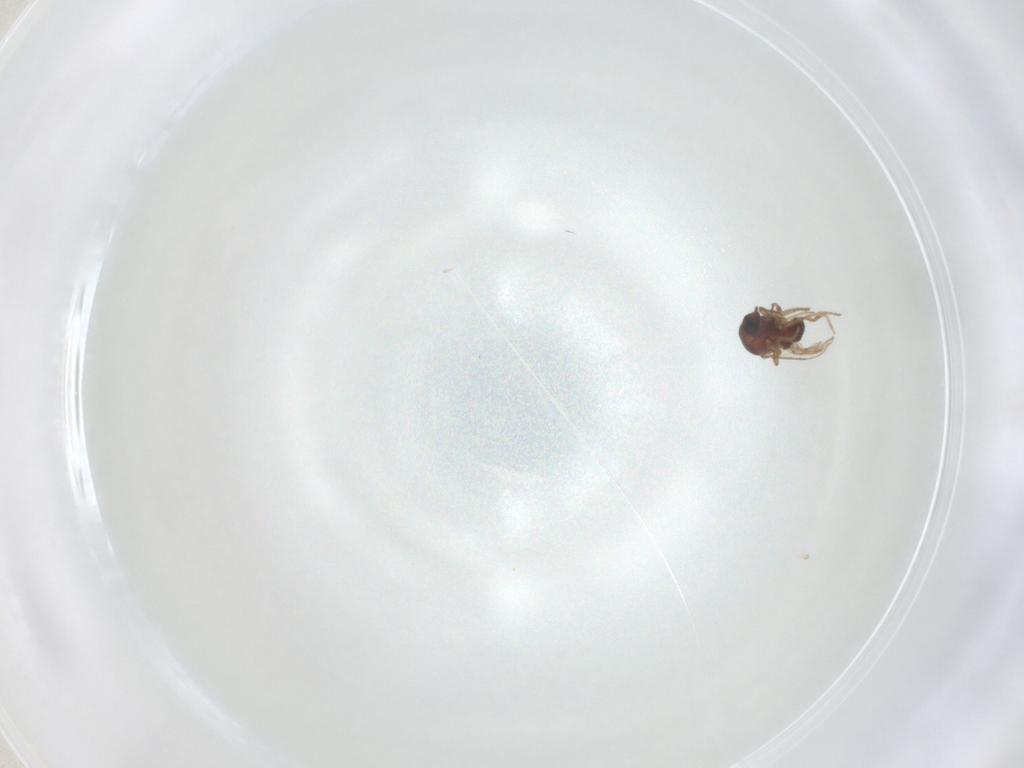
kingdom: Animalia
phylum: Arthropoda
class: Insecta
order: Diptera
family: Dolichopodidae
